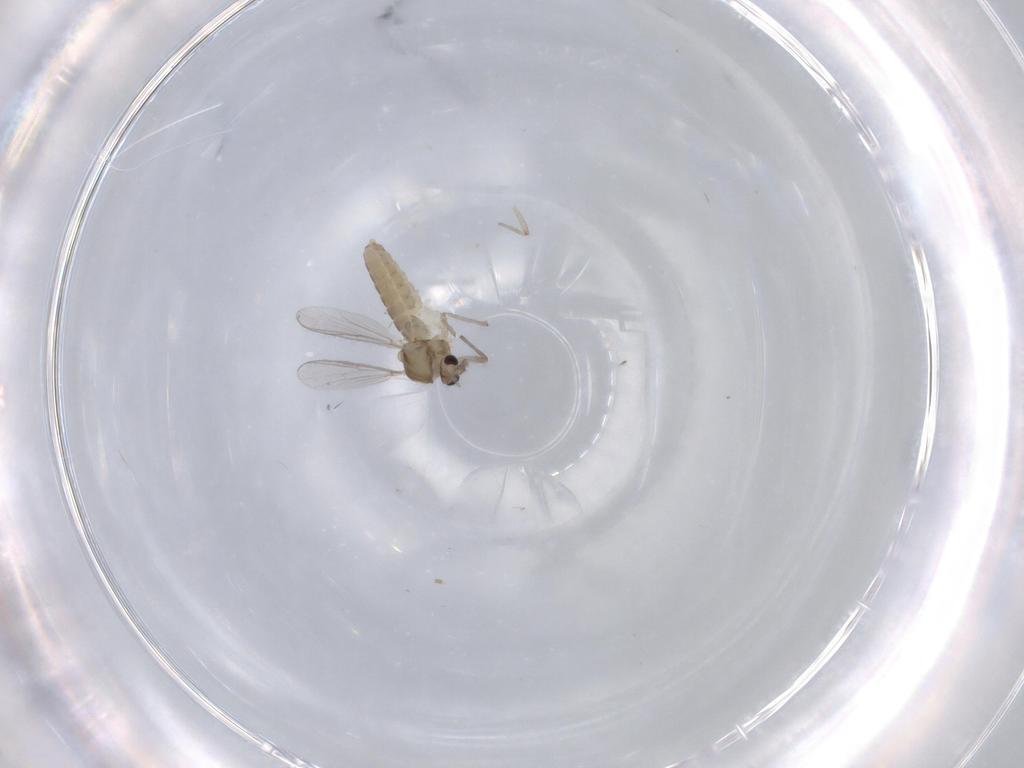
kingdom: Animalia
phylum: Arthropoda
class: Insecta
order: Diptera
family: Chironomidae
